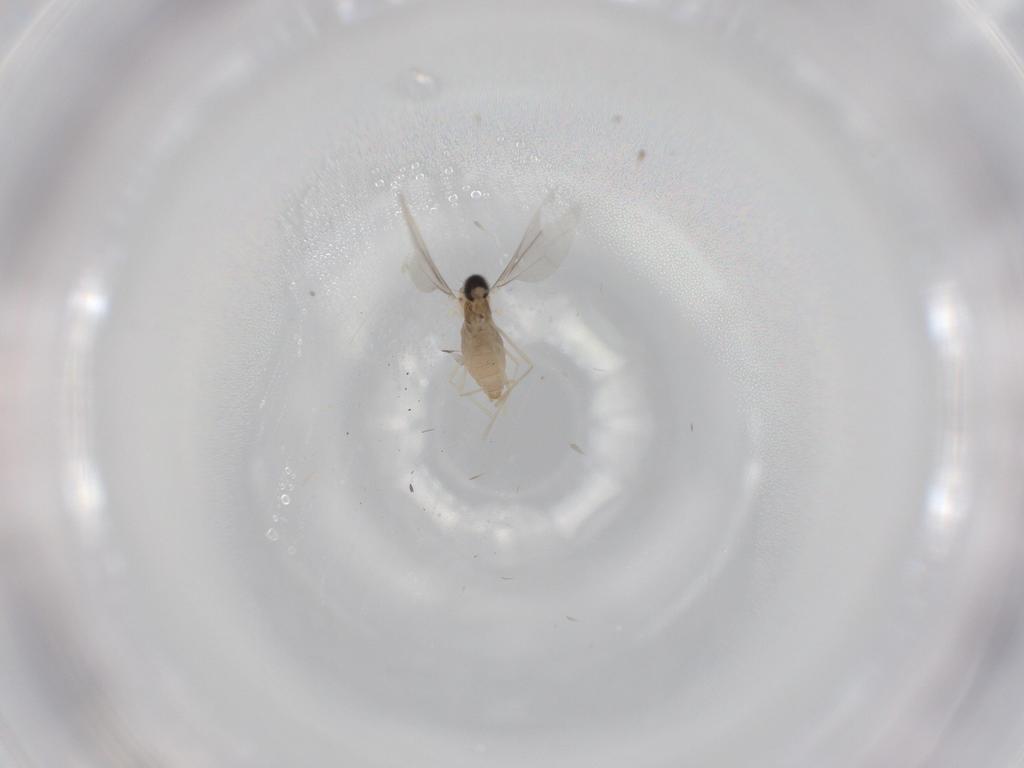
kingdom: Animalia
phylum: Arthropoda
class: Insecta
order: Diptera
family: Cecidomyiidae
